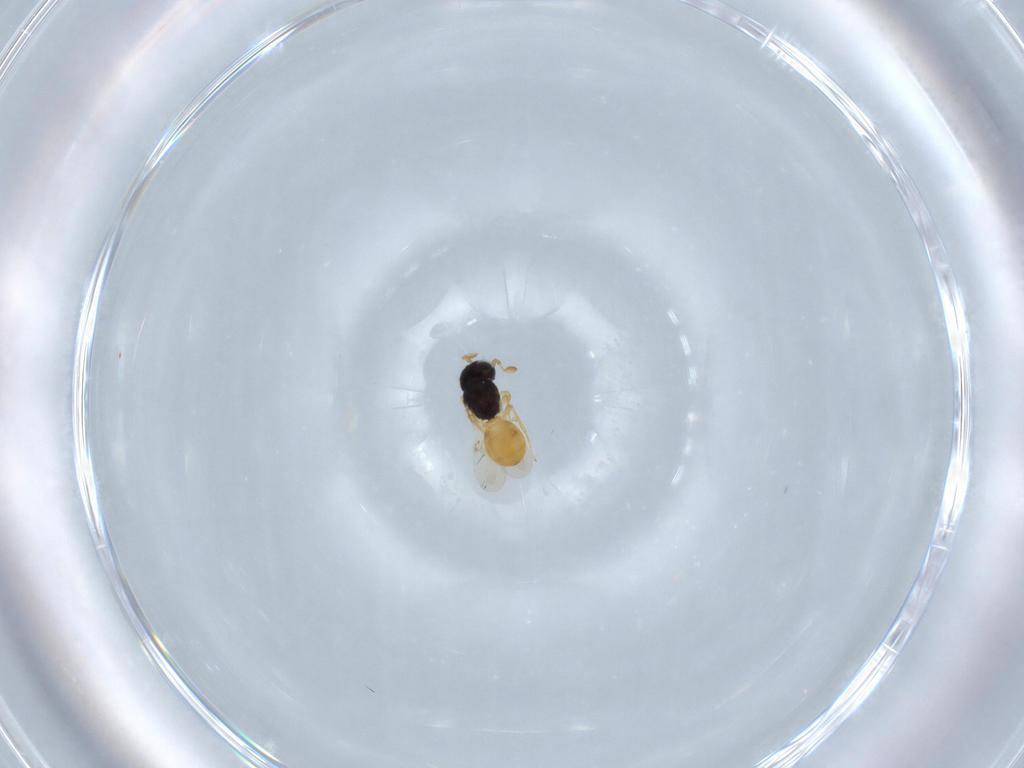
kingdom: Animalia
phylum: Arthropoda
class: Insecta
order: Hymenoptera
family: Scelionidae
